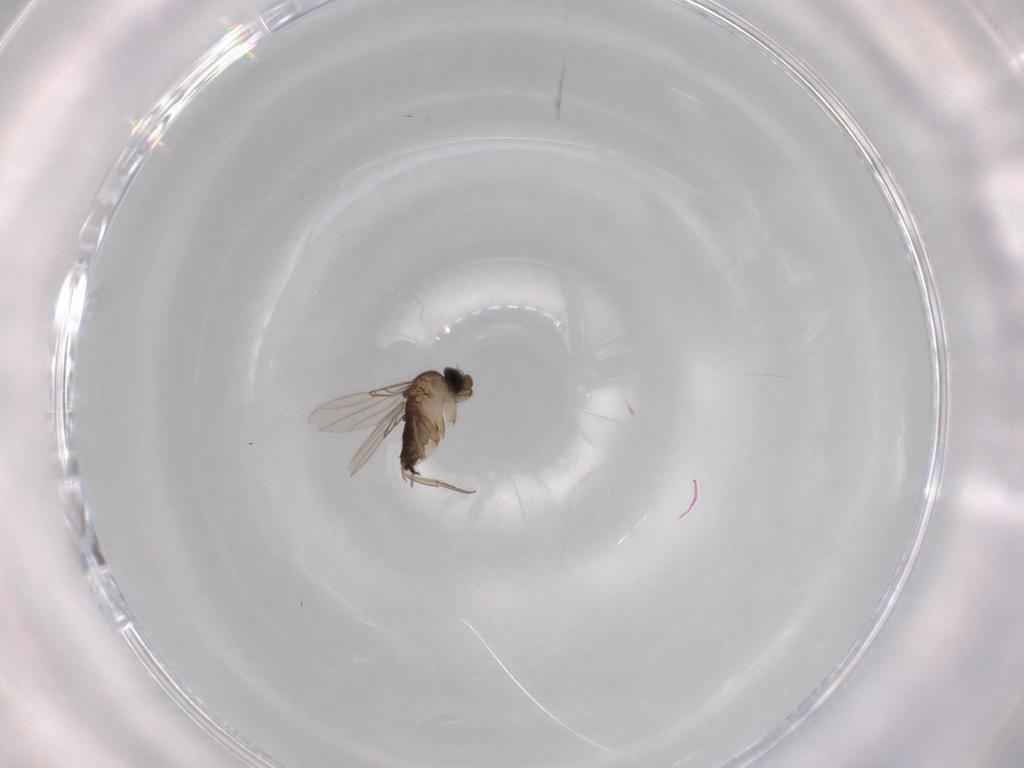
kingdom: Animalia
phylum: Arthropoda
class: Insecta
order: Diptera
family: Phoridae
